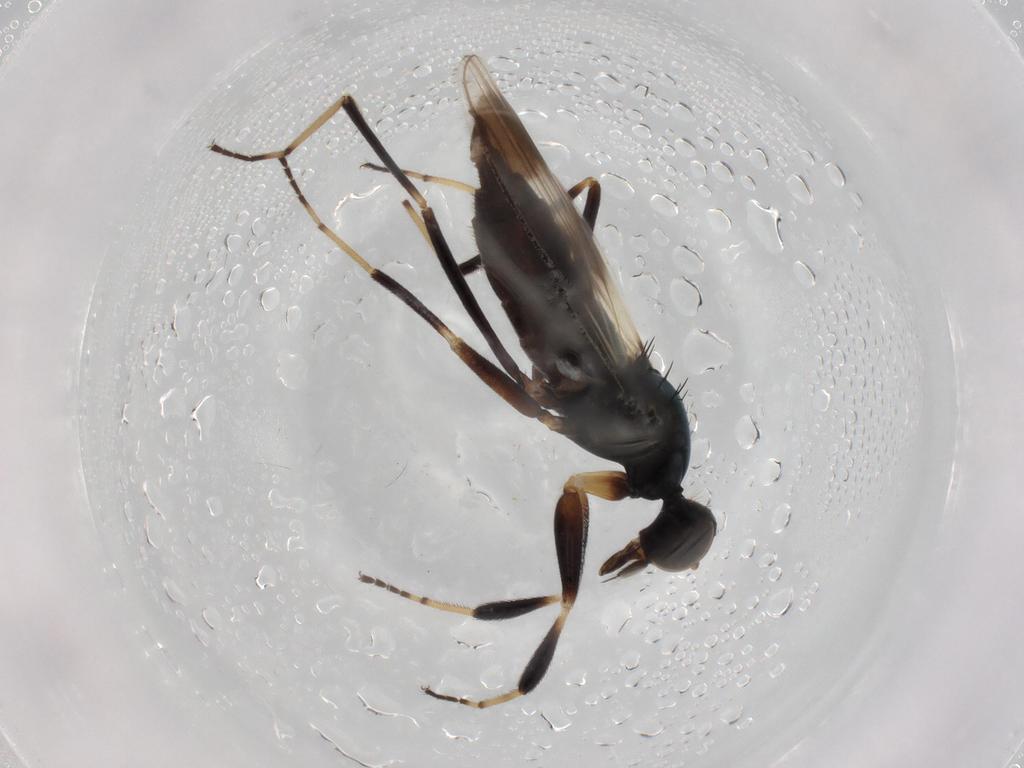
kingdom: Animalia
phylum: Arthropoda
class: Insecta
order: Diptera
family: Hybotidae
